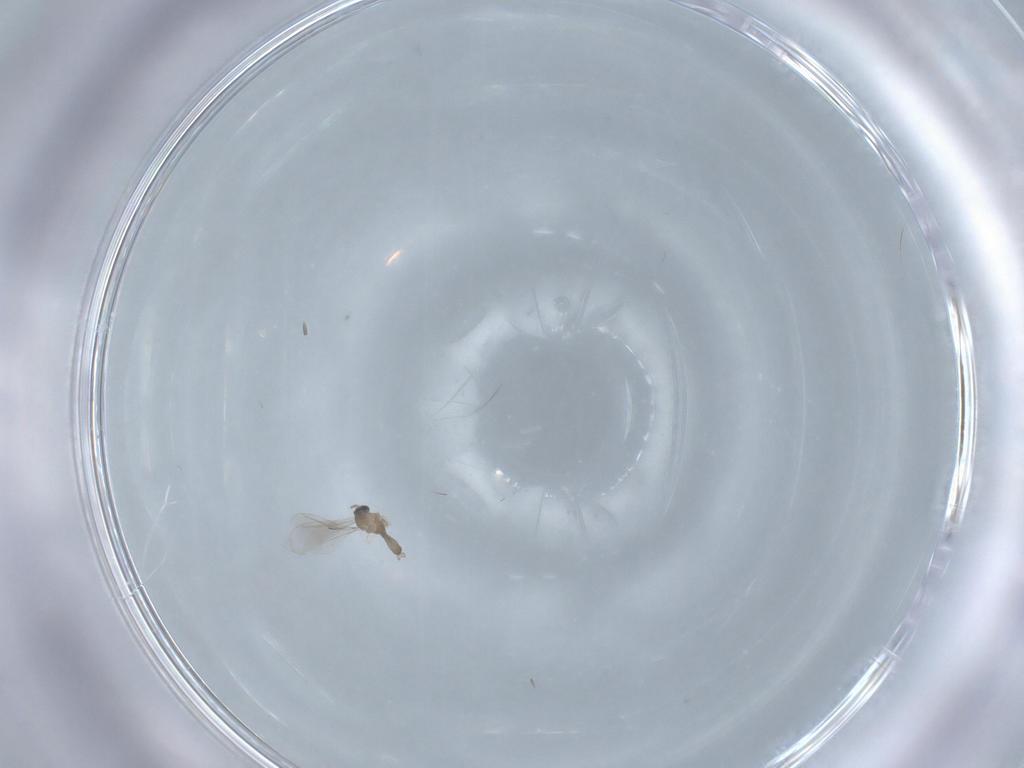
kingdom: Animalia
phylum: Arthropoda
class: Insecta
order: Diptera
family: Cecidomyiidae
